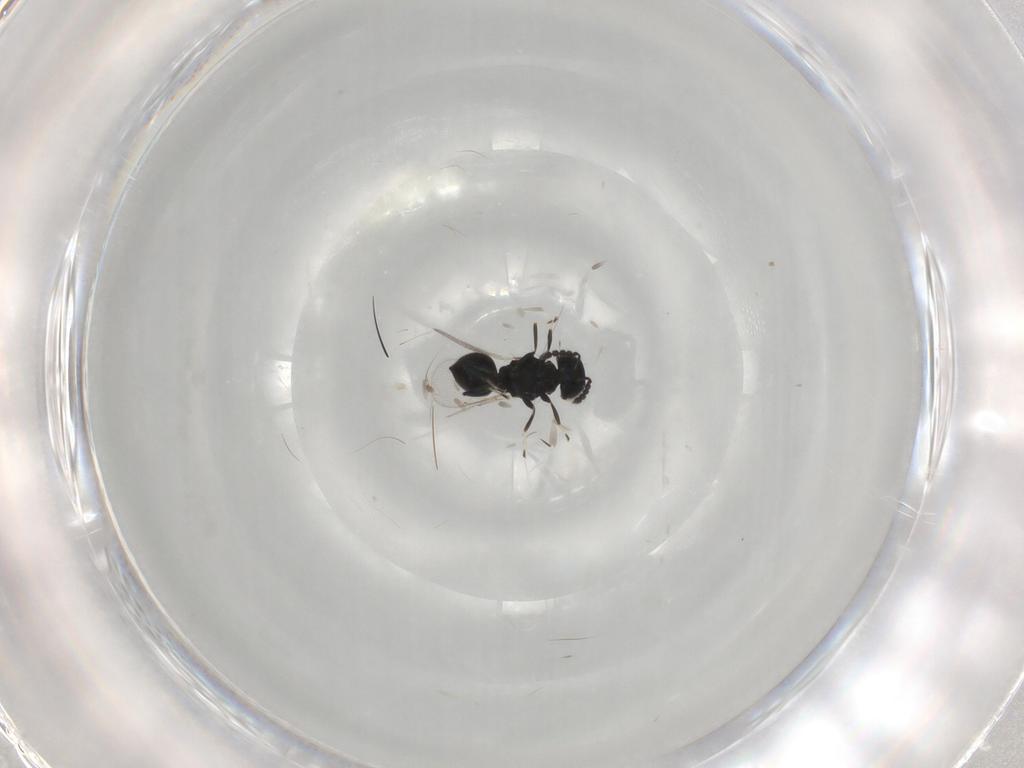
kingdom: Animalia
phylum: Arthropoda
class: Insecta
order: Hymenoptera
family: Eulophidae
